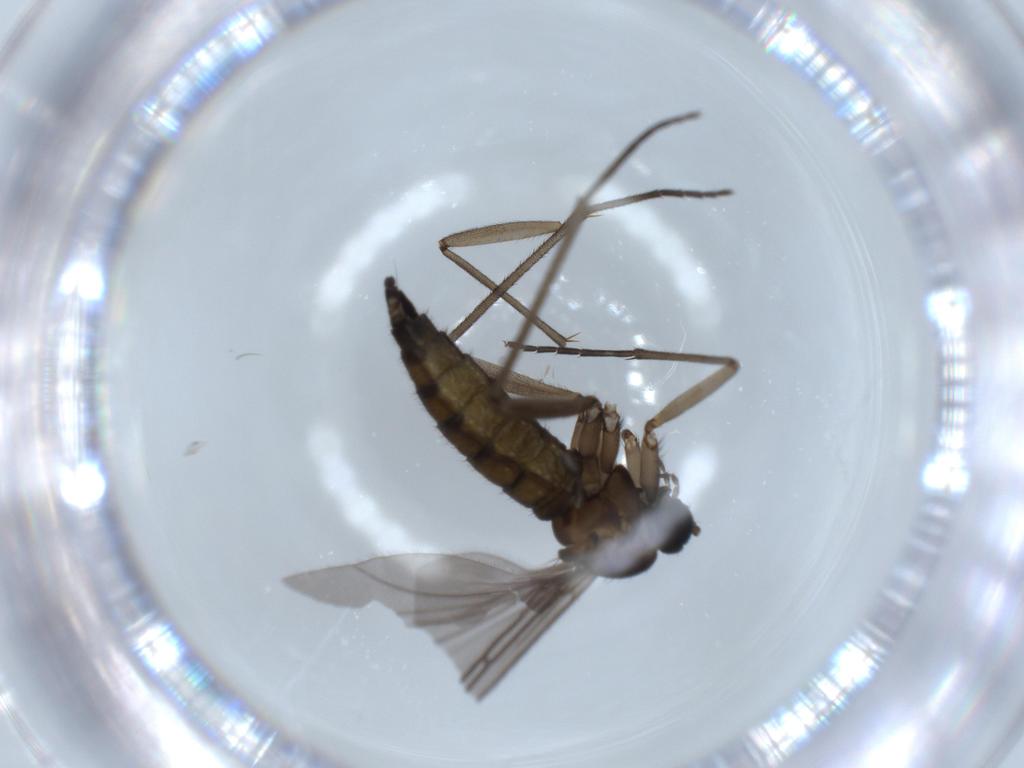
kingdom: Animalia
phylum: Arthropoda
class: Insecta
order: Diptera
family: Sciaridae
